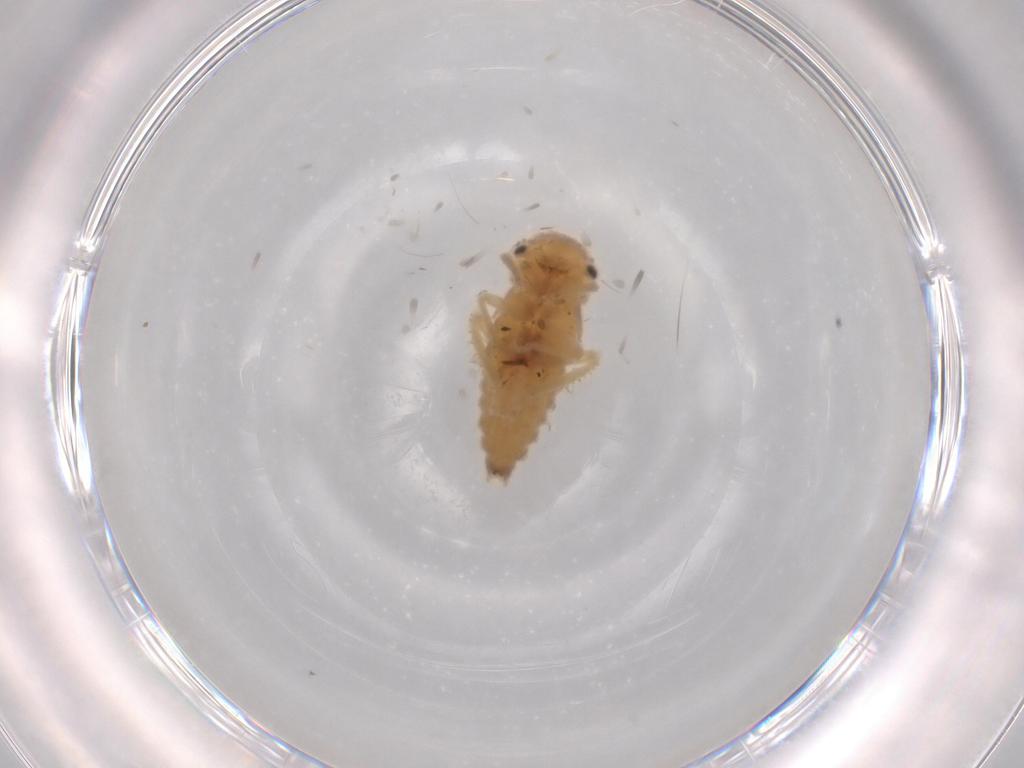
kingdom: Animalia
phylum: Arthropoda
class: Insecta
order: Hemiptera
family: Cicadellidae
